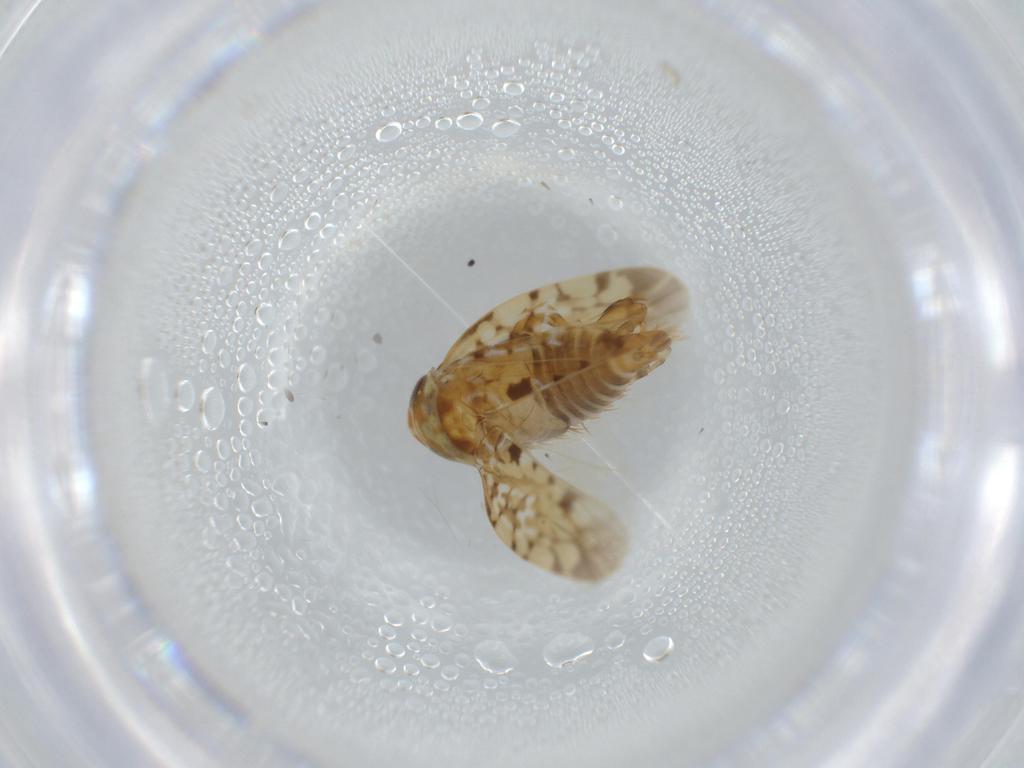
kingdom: Animalia
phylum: Arthropoda
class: Insecta
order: Hemiptera
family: Cicadellidae
